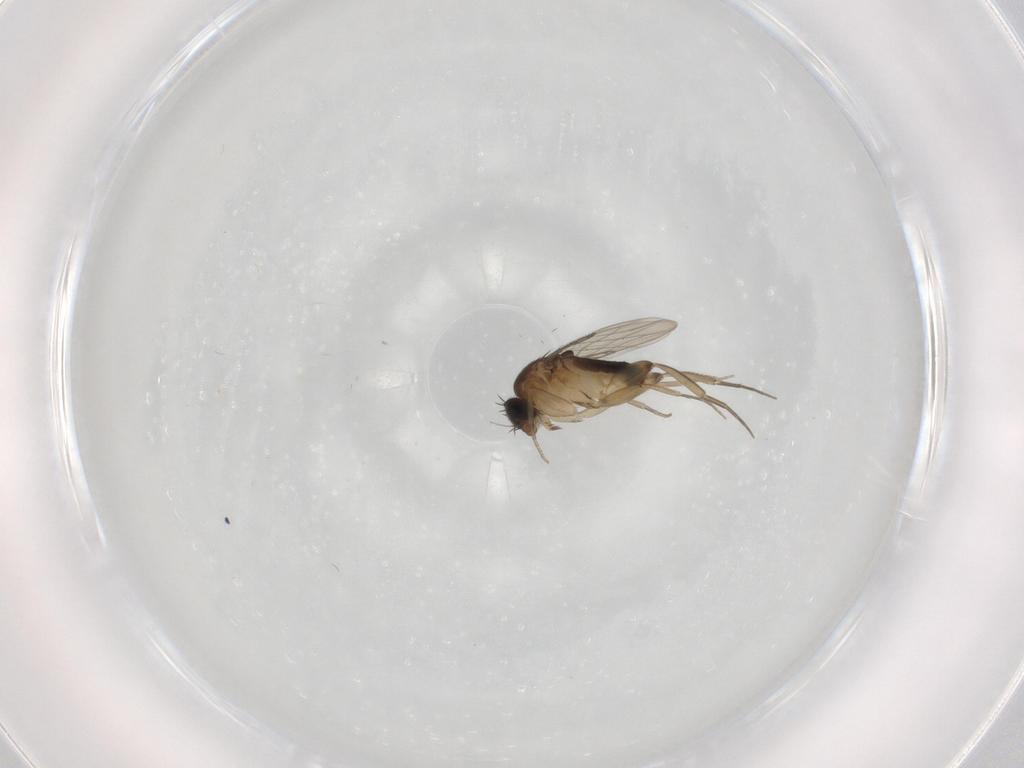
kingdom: Animalia
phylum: Arthropoda
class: Insecta
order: Diptera
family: Phoridae
